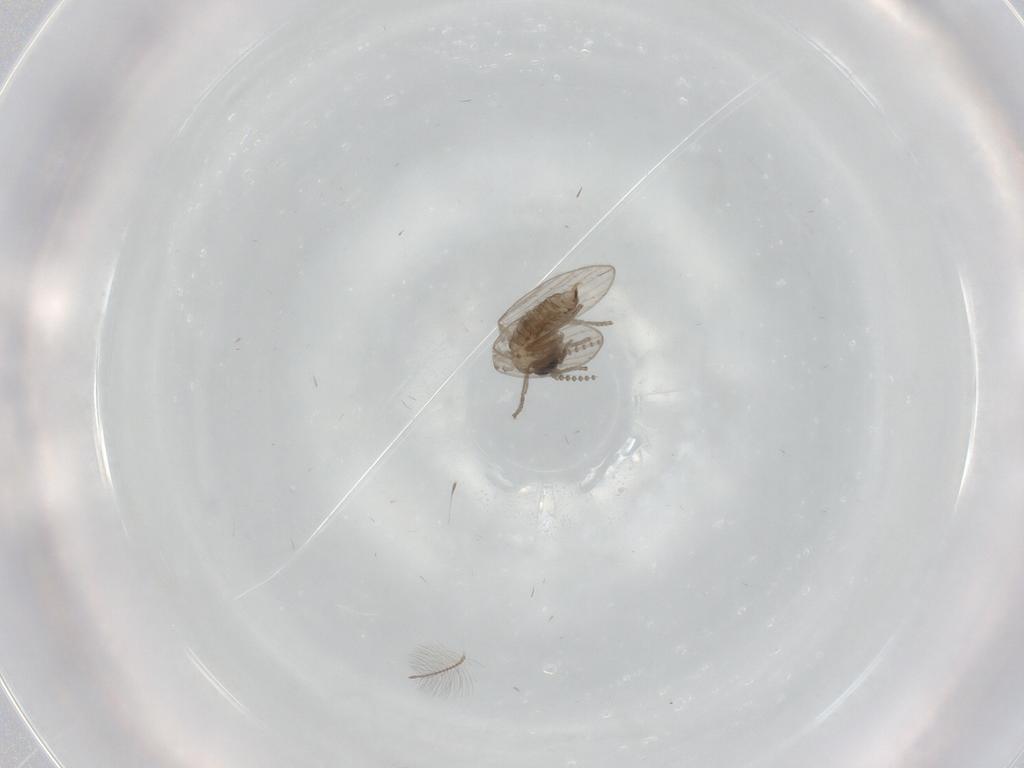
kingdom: Animalia
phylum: Arthropoda
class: Insecta
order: Diptera
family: Psychodidae
